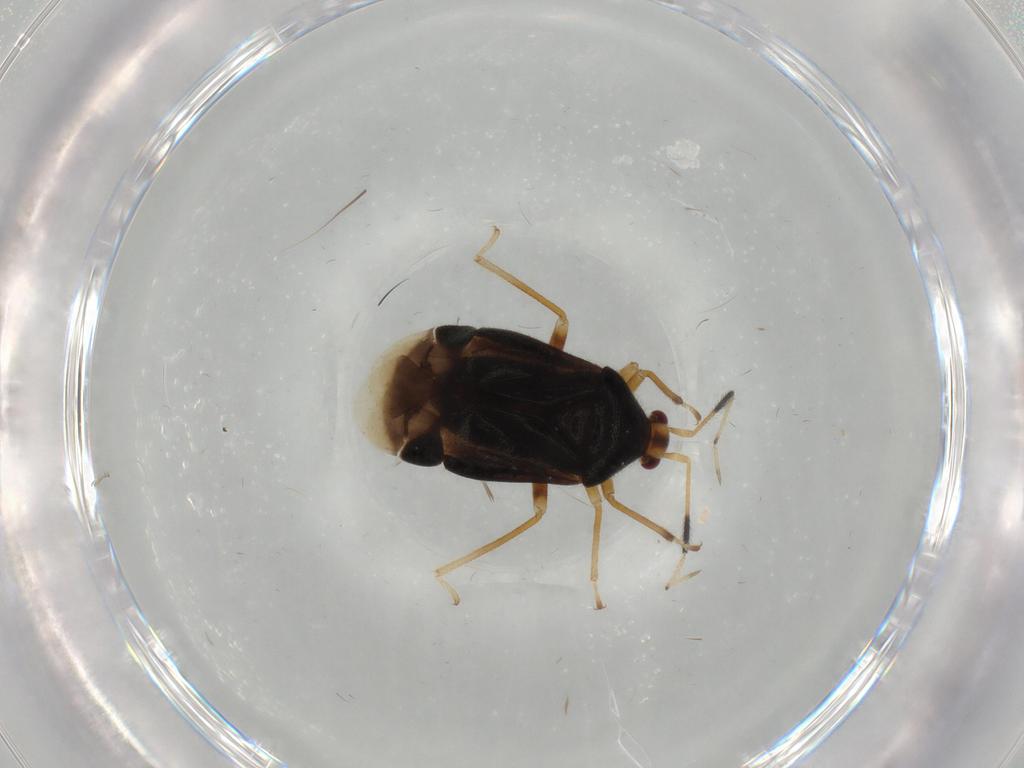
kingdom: Animalia
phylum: Arthropoda
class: Insecta
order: Hemiptera
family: Miridae
